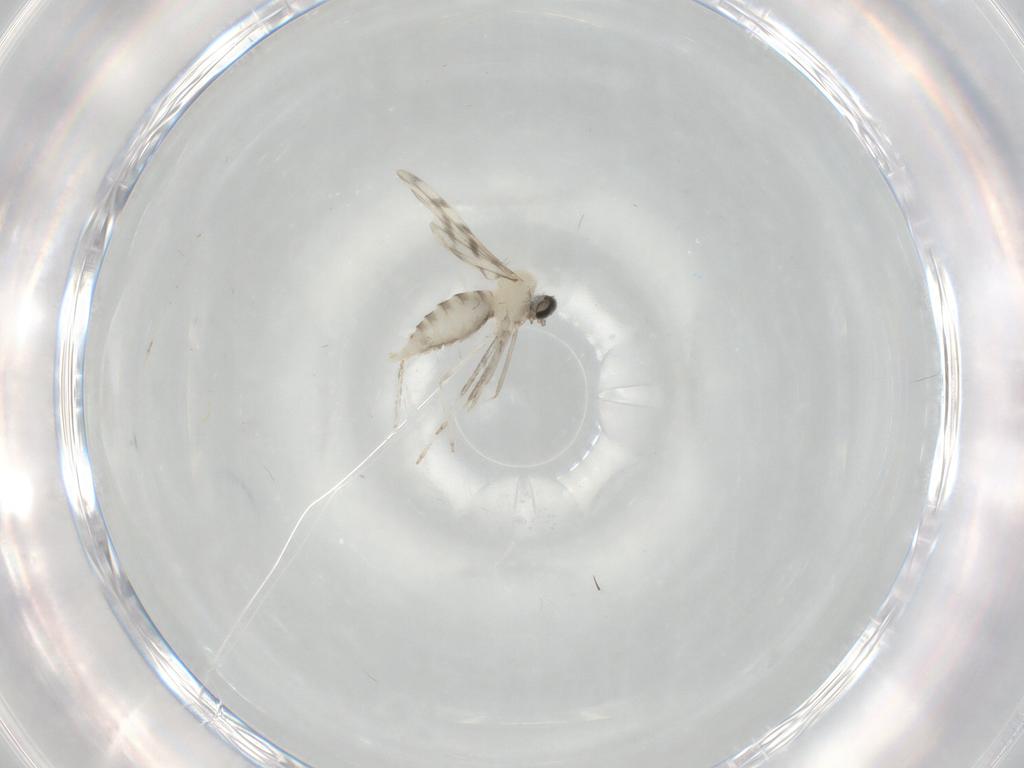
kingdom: Animalia
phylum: Arthropoda
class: Insecta
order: Diptera
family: Cecidomyiidae
